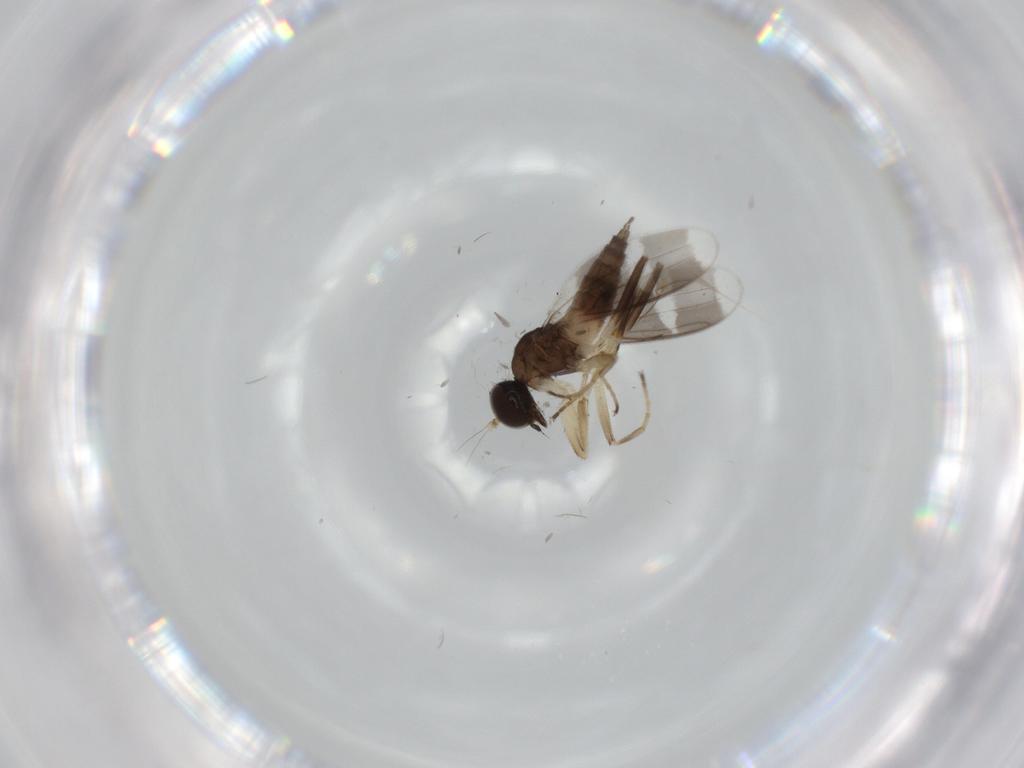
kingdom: Animalia
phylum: Arthropoda
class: Insecta
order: Diptera
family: Hybotidae
